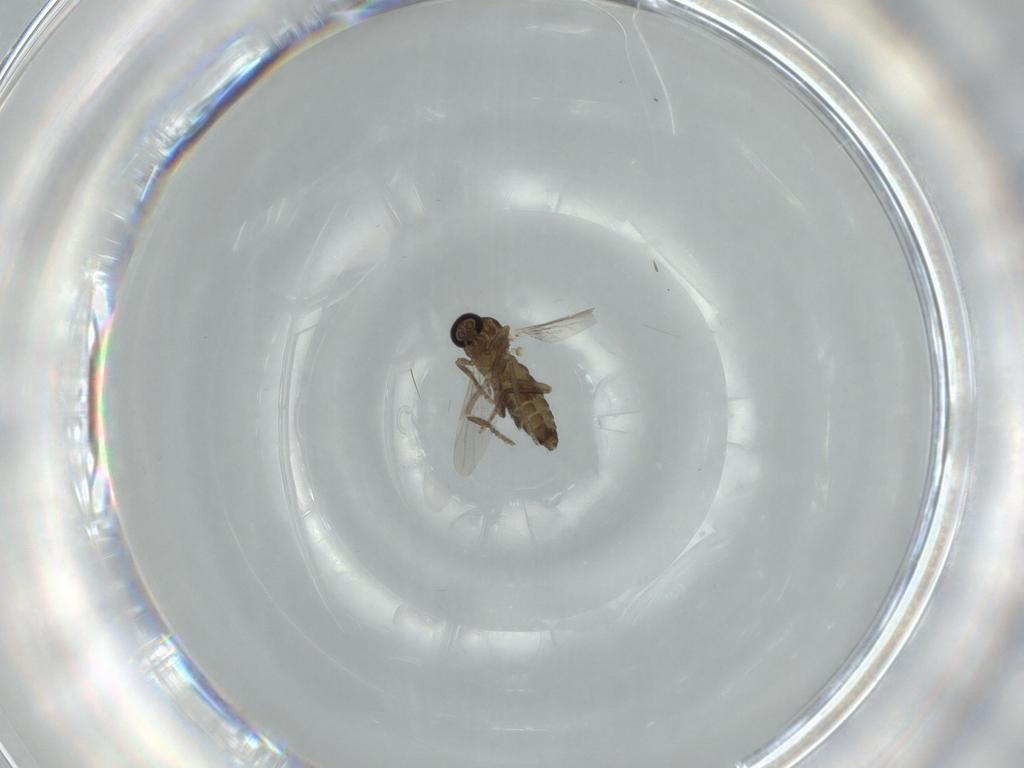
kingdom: Animalia
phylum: Arthropoda
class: Insecta
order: Diptera
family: Ceratopogonidae
